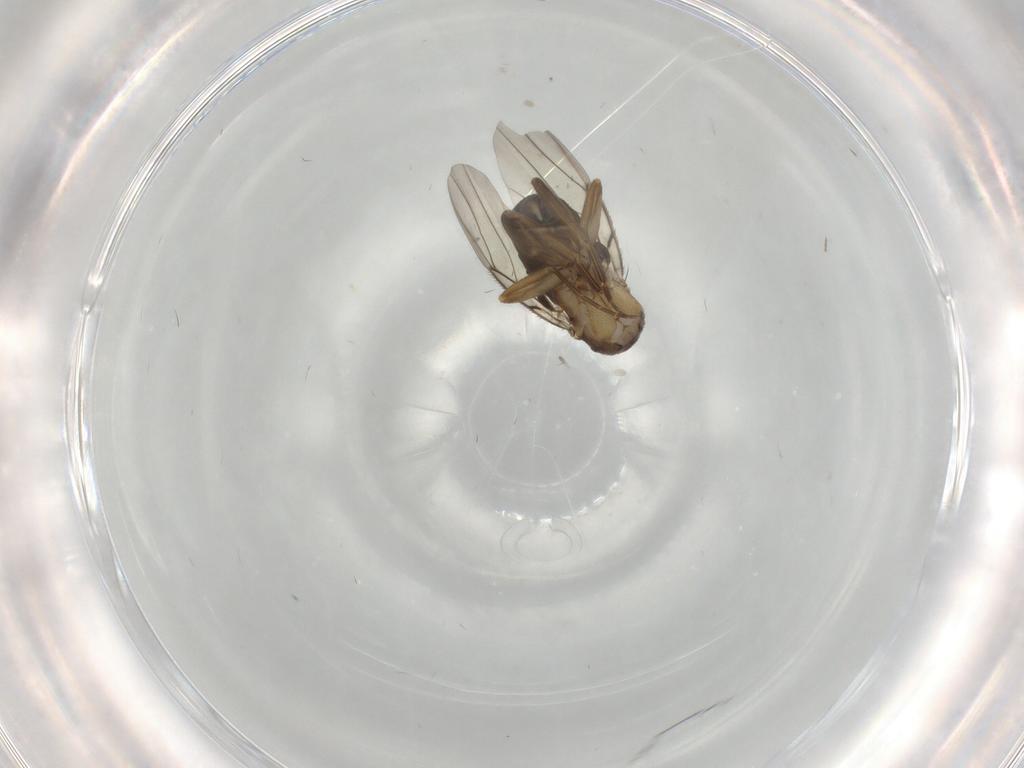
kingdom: Animalia
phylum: Arthropoda
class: Insecta
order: Diptera
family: Phoridae
